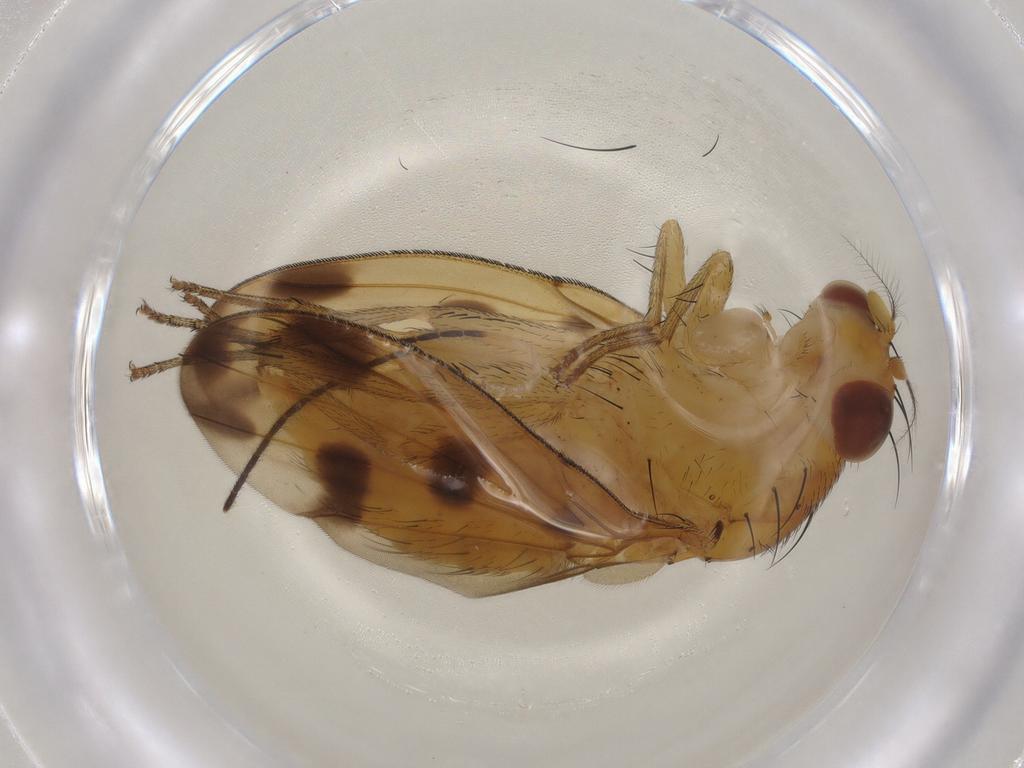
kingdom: Animalia
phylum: Arthropoda
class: Insecta
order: Diptera
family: Lauxaniidae
